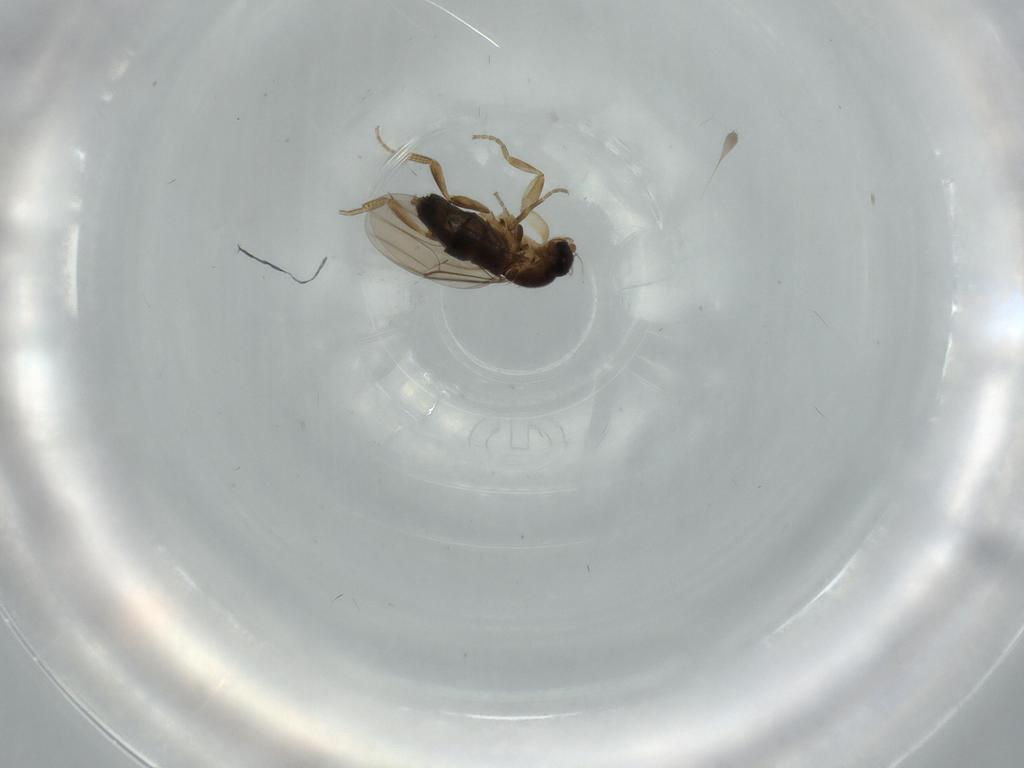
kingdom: Animalia
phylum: Arthropoda
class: Insecta
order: Diptera
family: Phoridae
